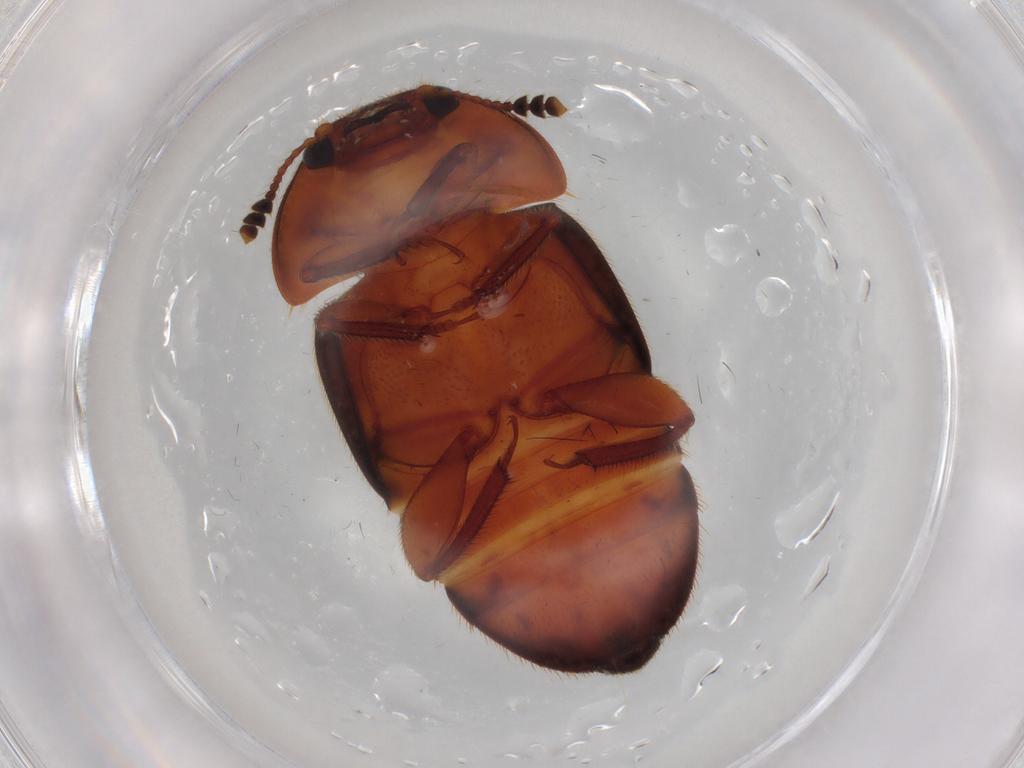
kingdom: Animalia
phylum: Arthropoda
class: Insecta
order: Coleoptera
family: Nitidulidae
